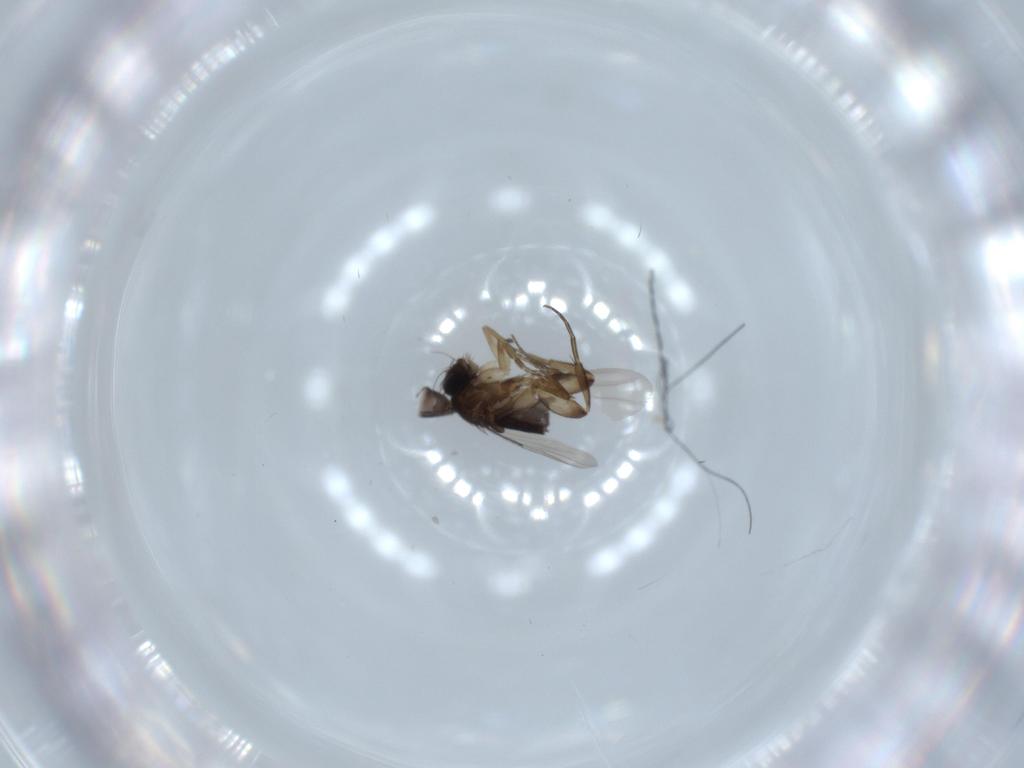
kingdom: Animalia
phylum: Arthropoda
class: Insecta
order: Diptera
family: Phoridae
